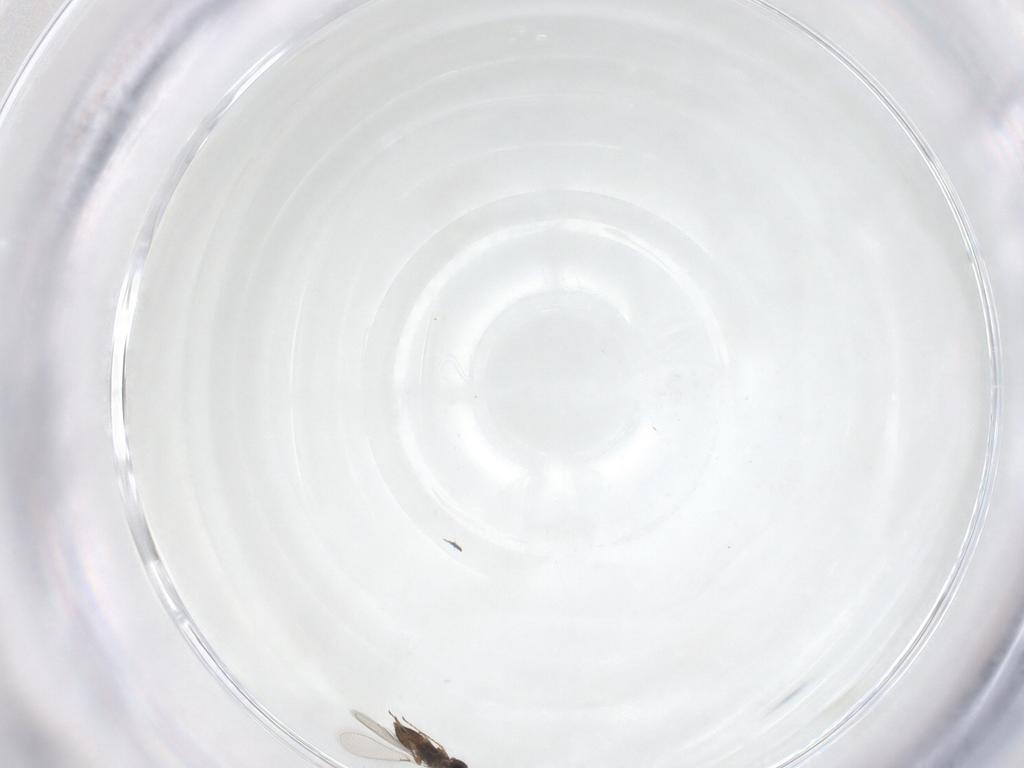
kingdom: Animalia
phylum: Arthropoda
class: Insecta
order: Hymenoptera
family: Mymaridae
